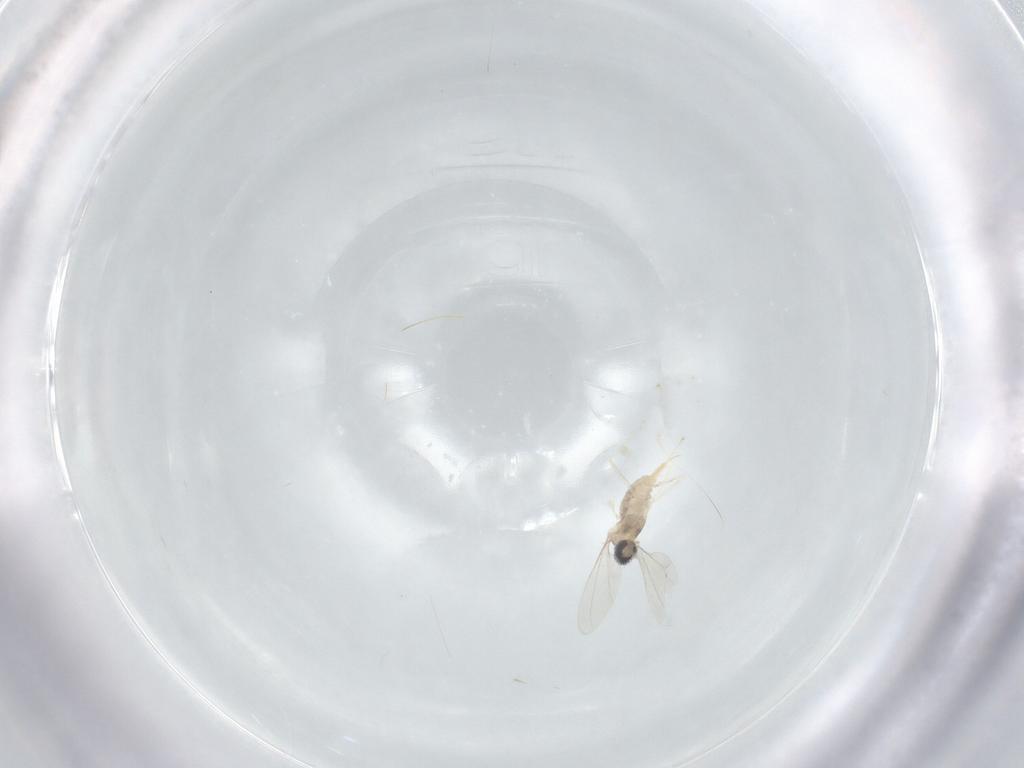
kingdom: Animalia
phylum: Arthropoda
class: Insecta
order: Diptera
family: Cecidomyiidae
